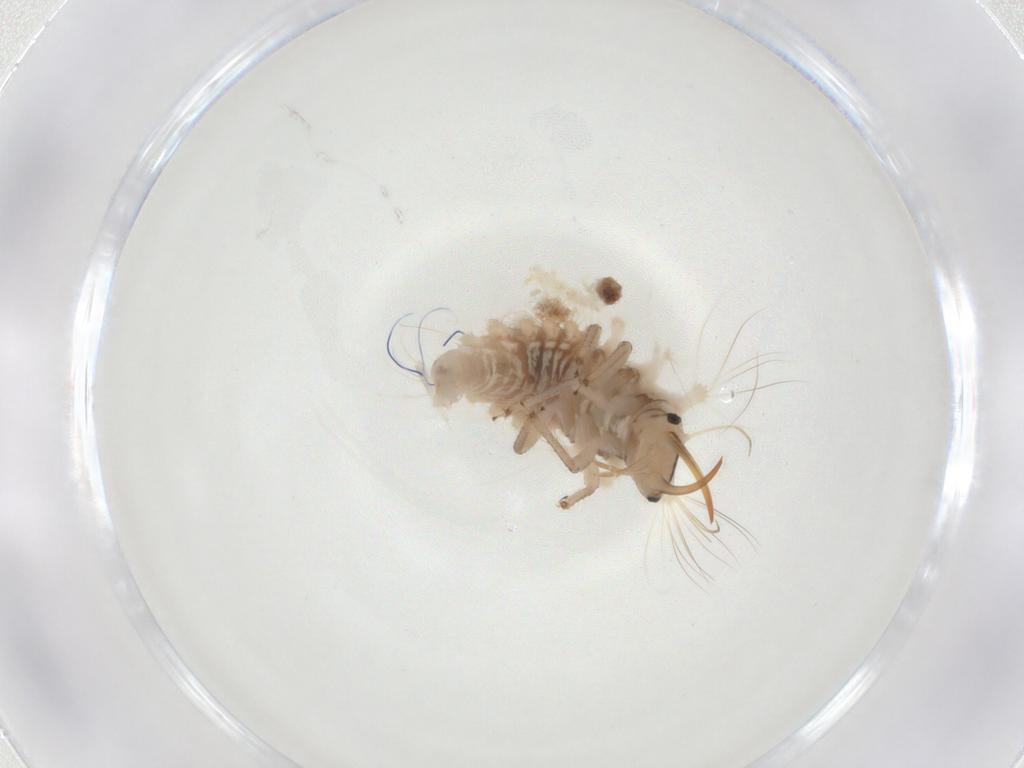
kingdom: Animalia
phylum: Arthropoda
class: Insecta
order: Neuroptera
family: Chrysopidae
